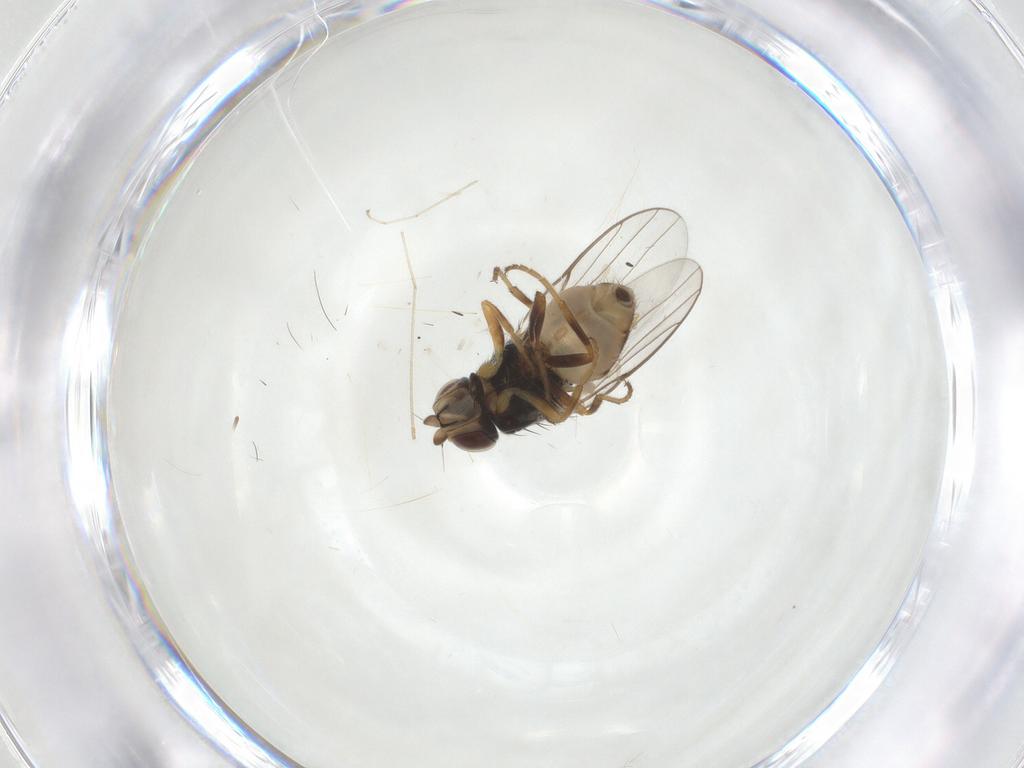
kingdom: Animalia
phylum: Arthropoda
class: Insecta
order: Diptera
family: Chloropidae
